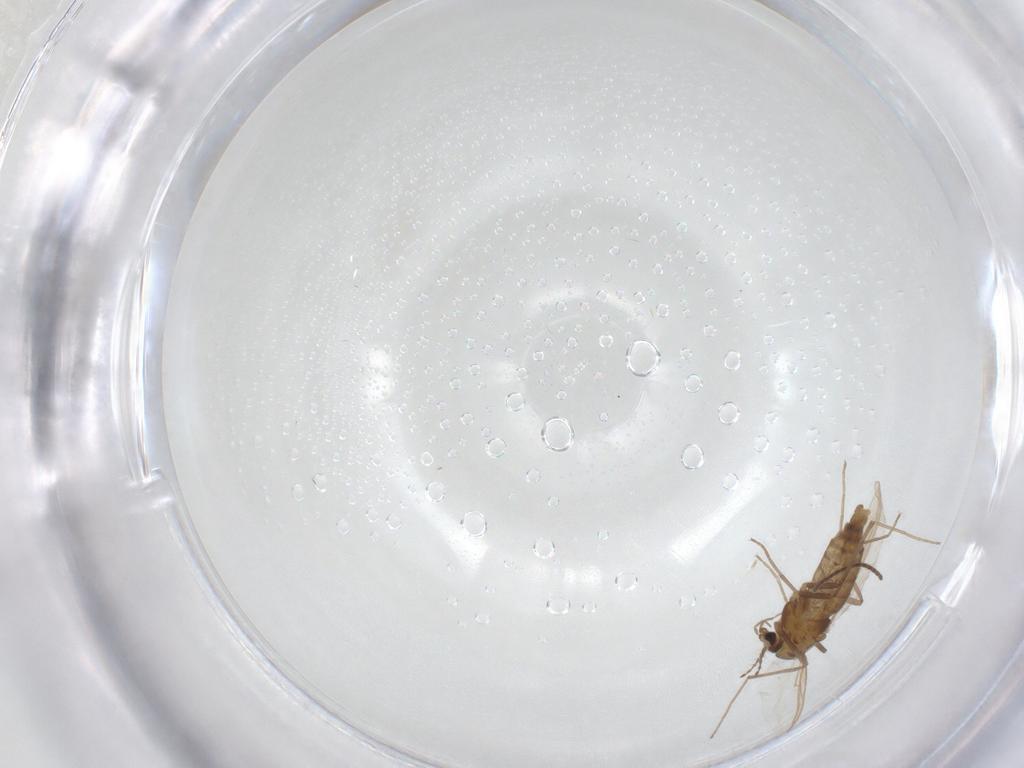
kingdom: Animalia
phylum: Arthropoda
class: Insecta
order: Diptera
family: Chironomidae
